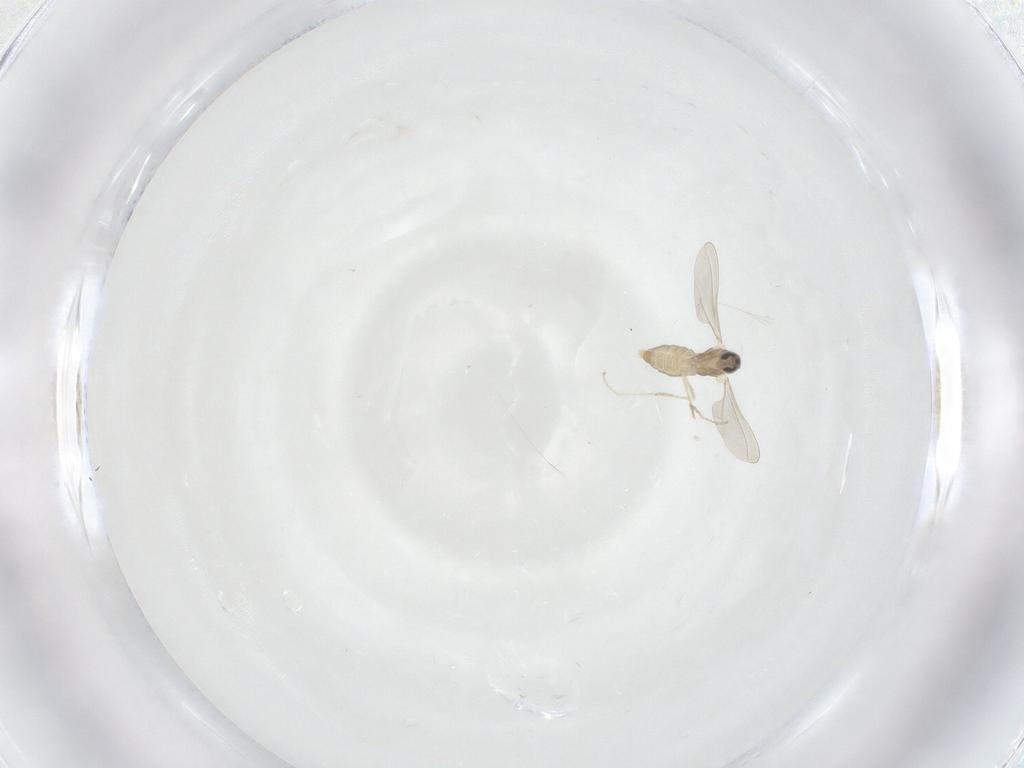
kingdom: Animalia
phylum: Arthropoda
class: Insecta
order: Diptera
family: Cecidomyiidae
